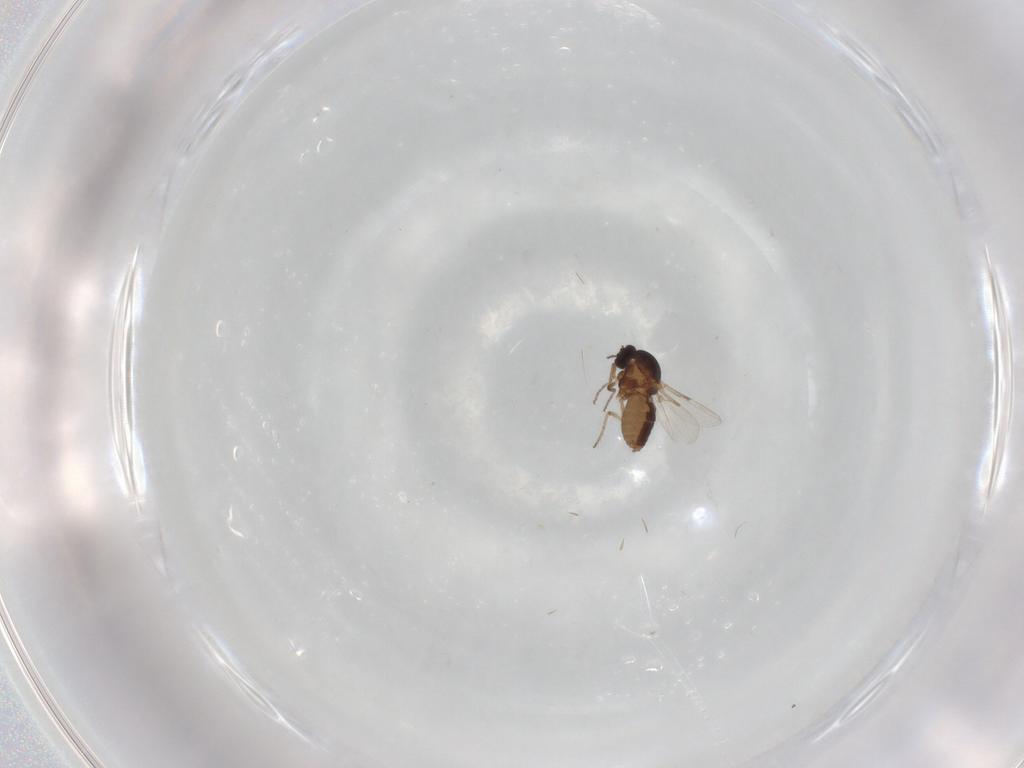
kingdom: Animalia
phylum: Arthropoda
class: Insecta
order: Diptera
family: Ceratopogonidae
